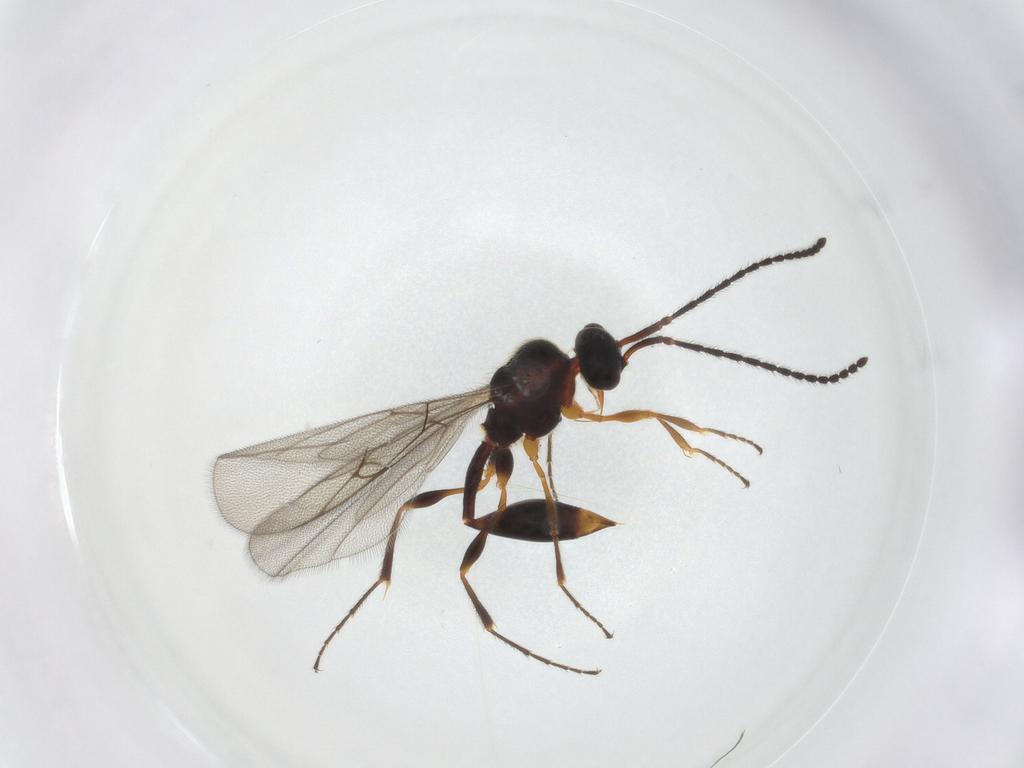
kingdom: Animalia
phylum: Arthropoda
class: Insecta
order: Hymenoptera
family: Diapriidae
